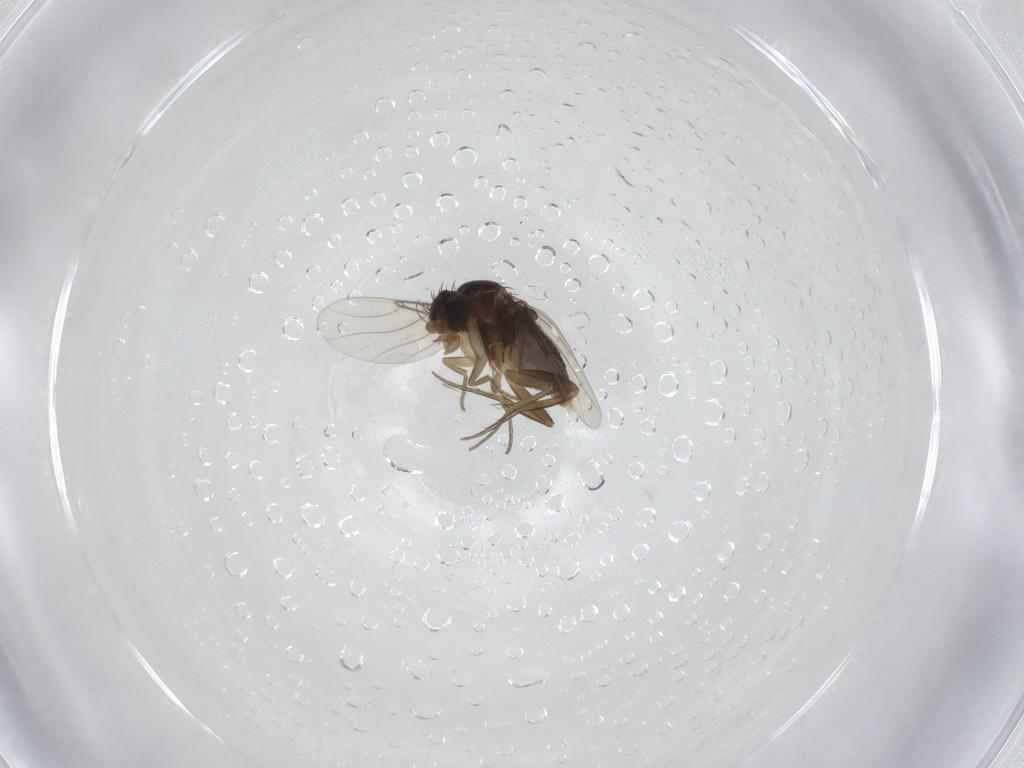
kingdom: Animalia
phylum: Arthropoda
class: Insecta
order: Diptera
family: Phoridae
